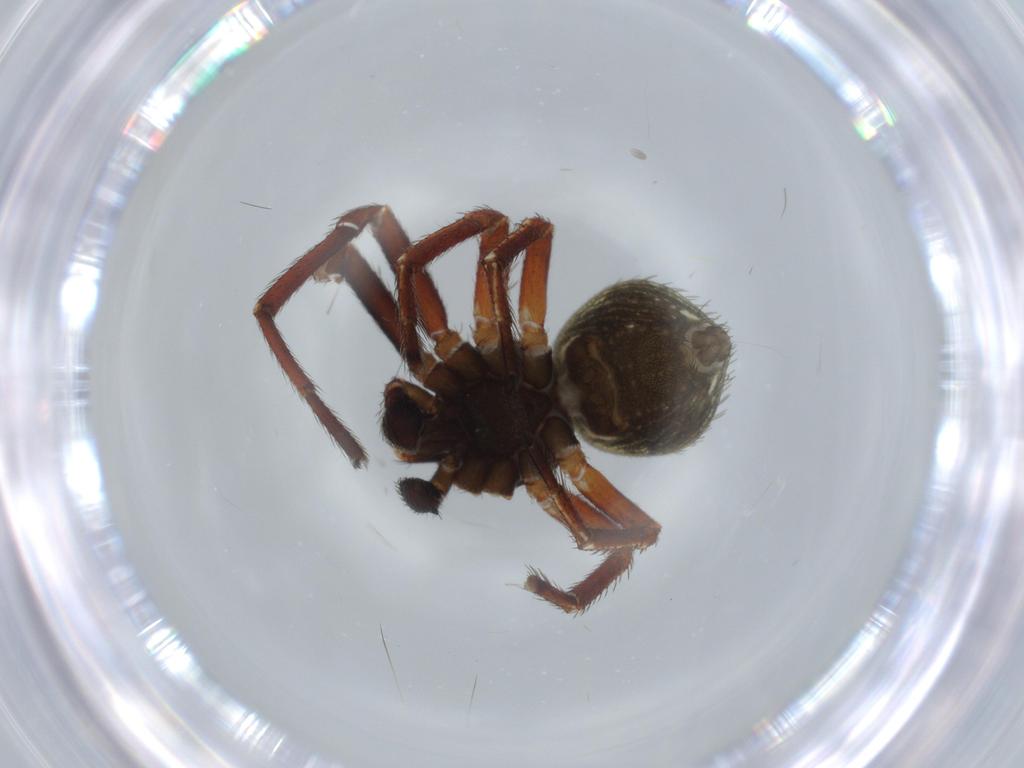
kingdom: Animalia
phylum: Arthropoda
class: Arachnida
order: Araneae
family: Thomisidae
